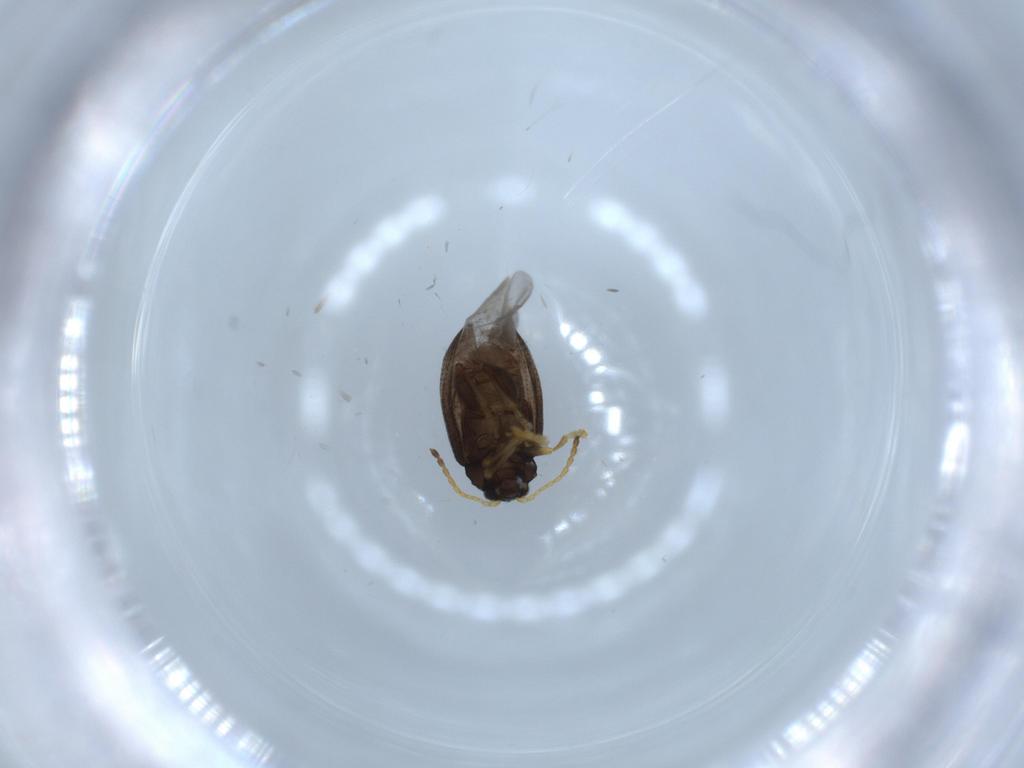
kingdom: Animalia
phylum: Arthropoda
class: Insecta
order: Coleoptera
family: Chrysomelidae
